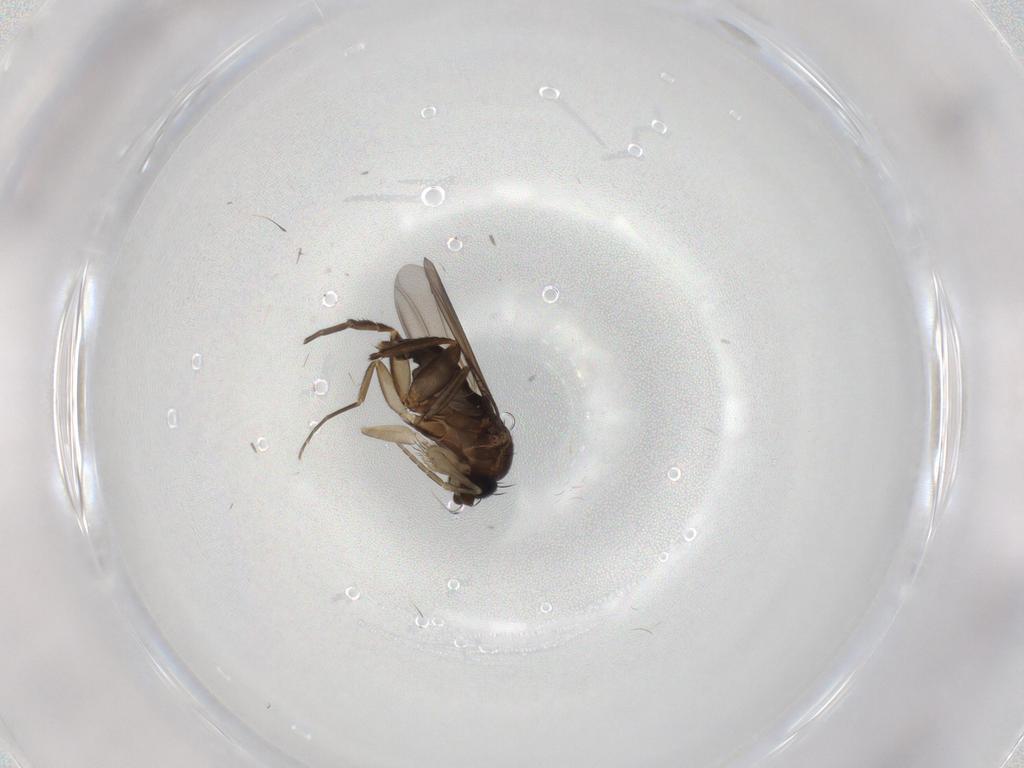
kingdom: Animalia
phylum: Arthropoda
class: Insecta
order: Diptera
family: Phoridae
